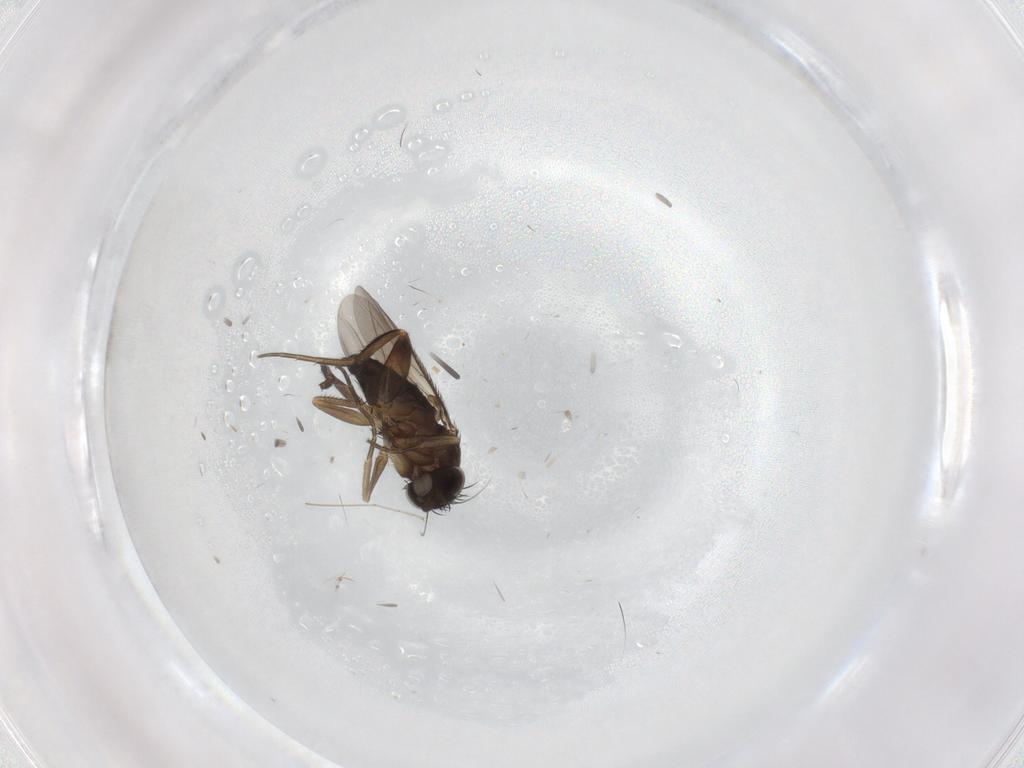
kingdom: Animalia
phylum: Arthropoda
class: Insecta
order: Diptera
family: Phoridae
